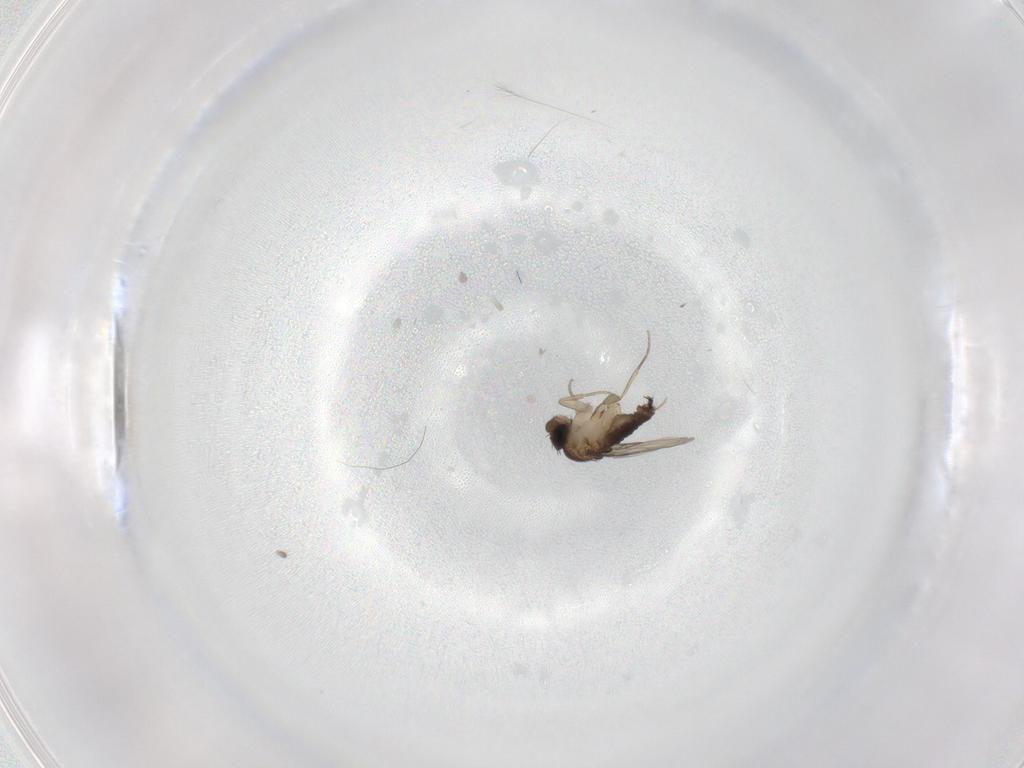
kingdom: Animalia
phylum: Arthropoda
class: Insecta
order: Diptera
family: Phoridae
